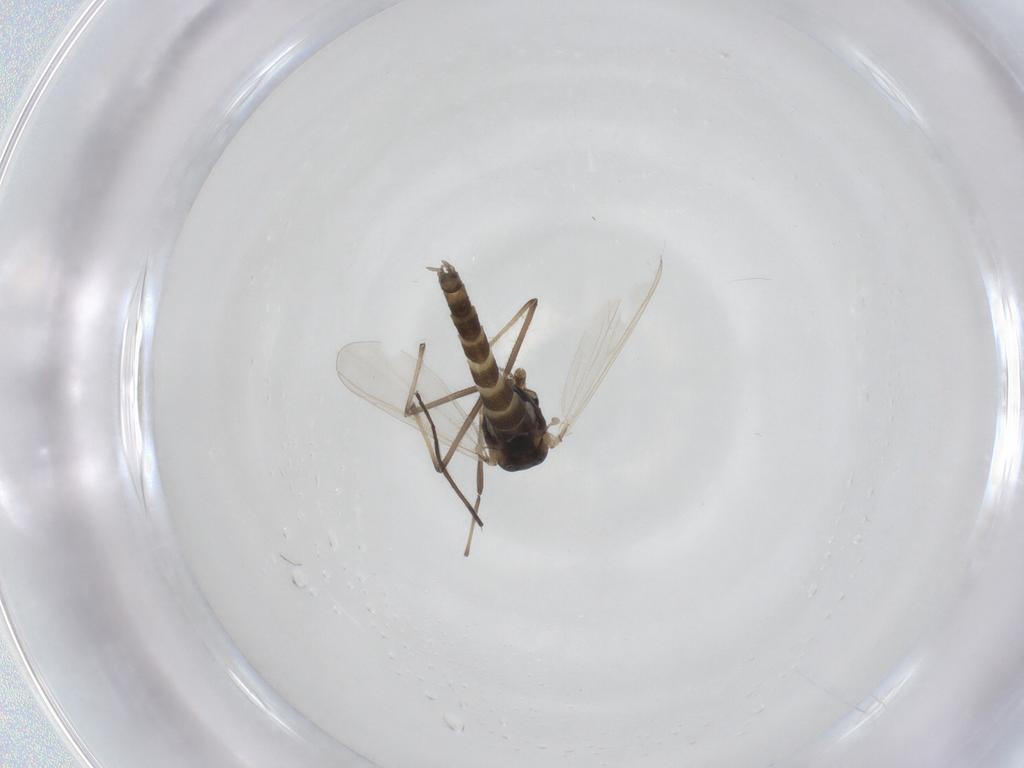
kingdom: Animalia
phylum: Arthropoda
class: Insecta
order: Diptera
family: Chironomidae
